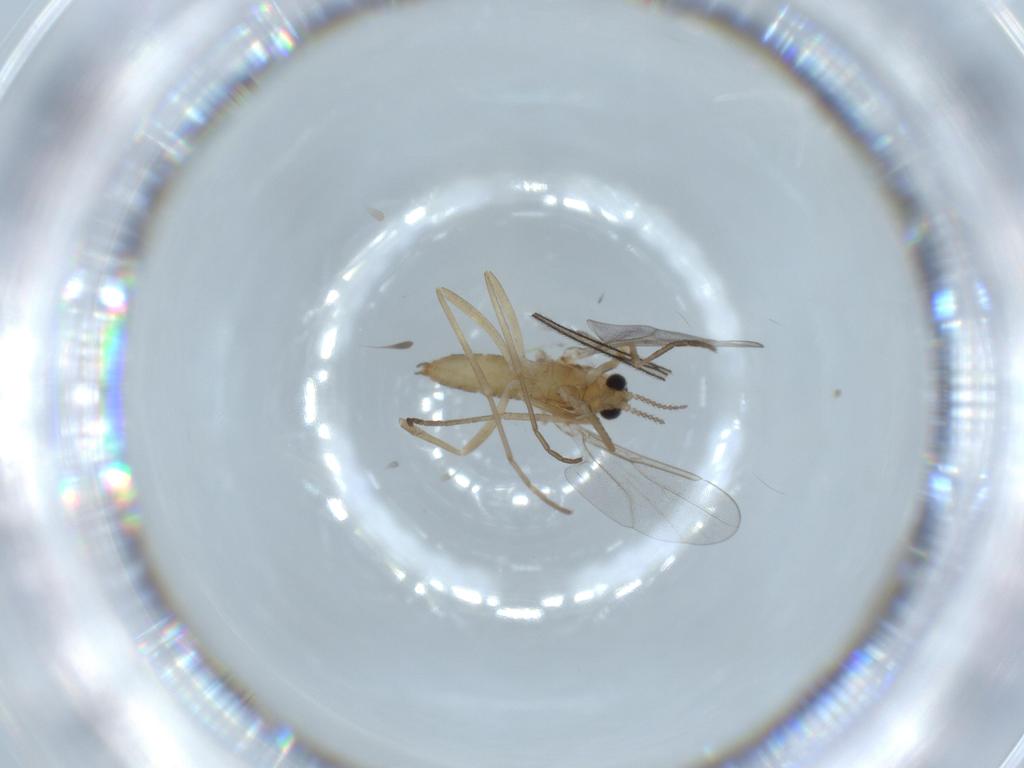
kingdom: Animalia
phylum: Arthropoda
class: Insecta
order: Diptera
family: Cecidomyiidae
